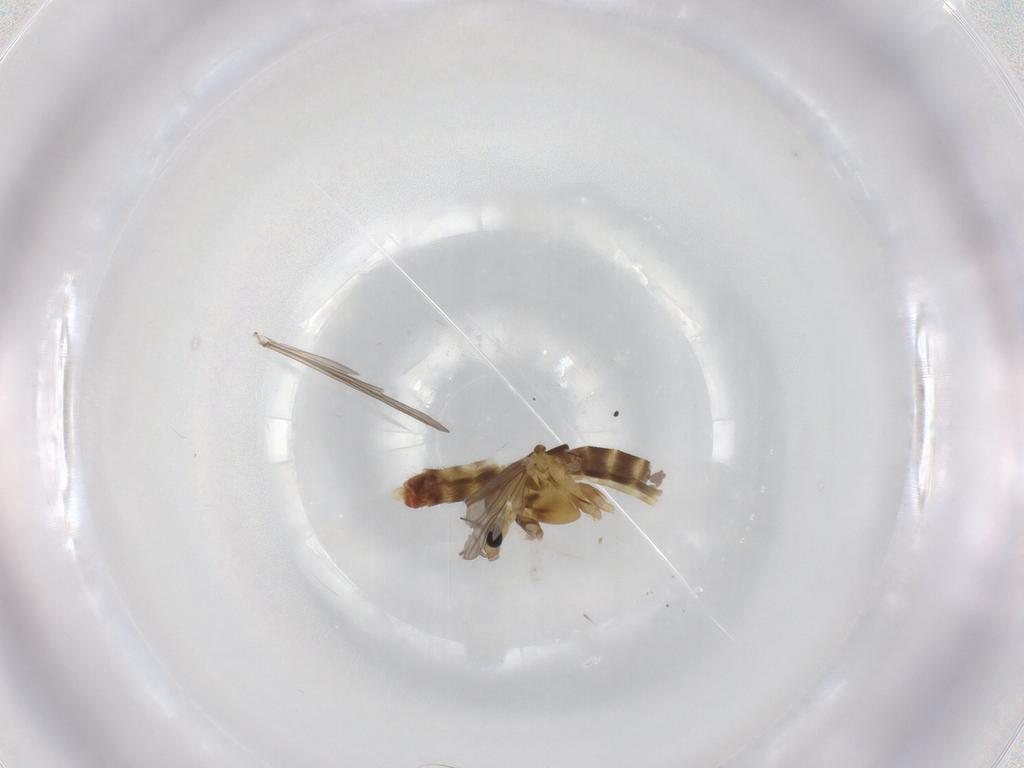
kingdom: Animalia
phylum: Arthropoda
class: Insecta
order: Diptera
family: Chironomidae
